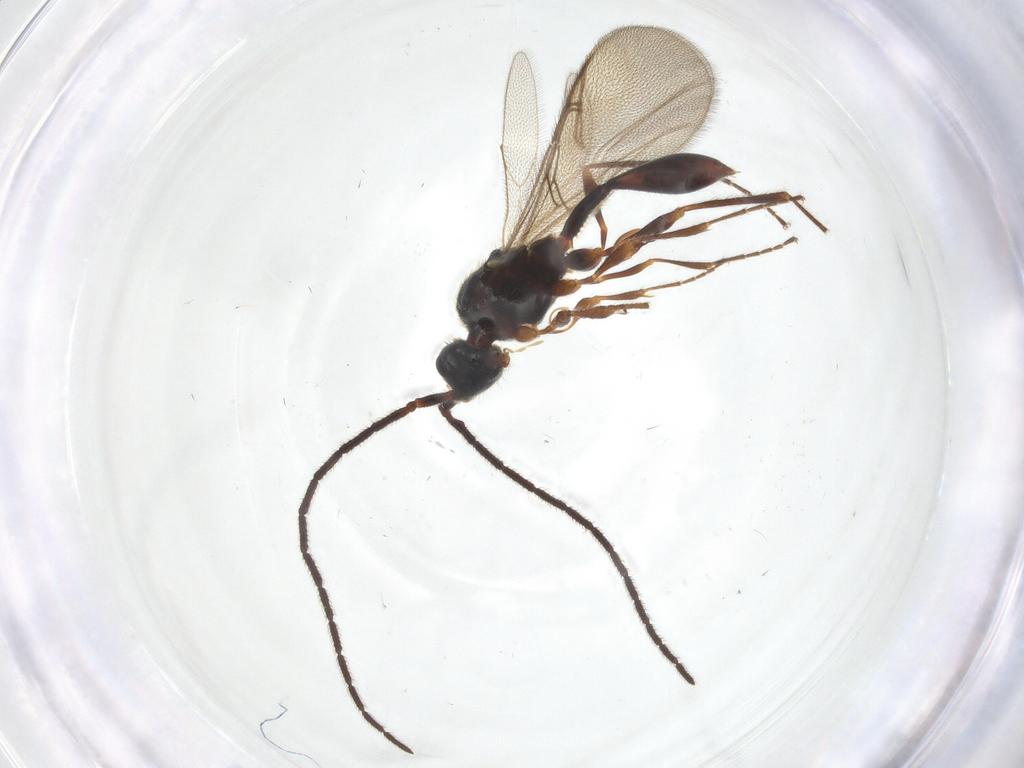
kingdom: Animalia
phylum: Arthropoda
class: Insecta
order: Hymenoptera
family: Diapriidae
